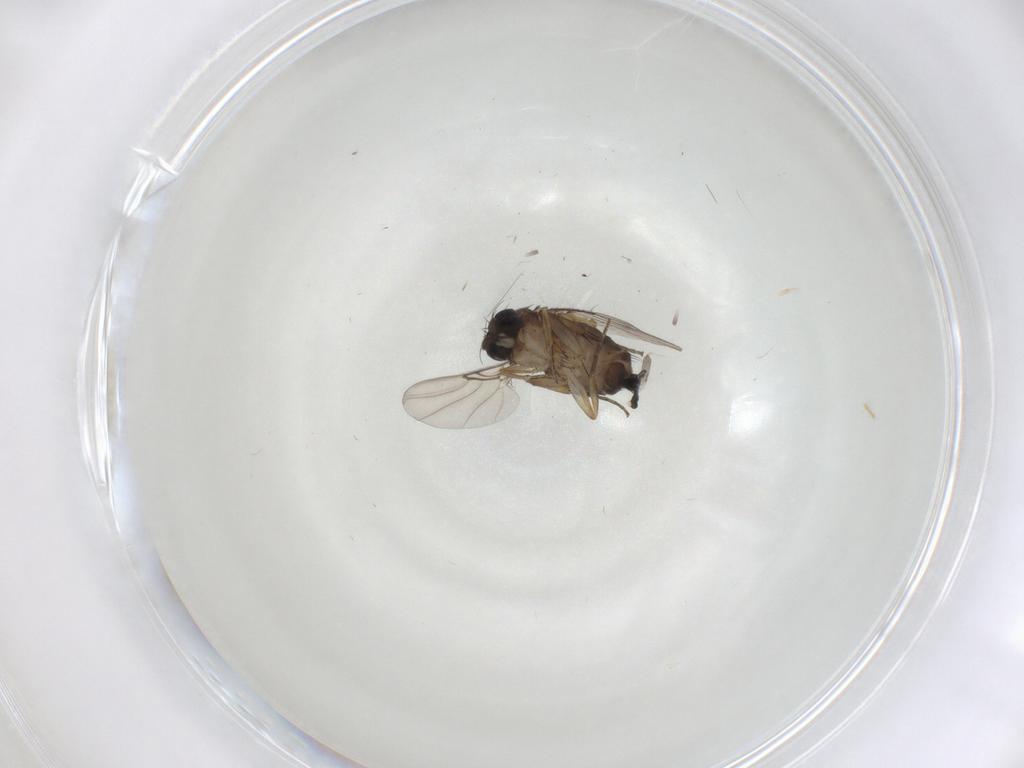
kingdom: Animalia
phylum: Arthropoda
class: Insecta
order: Diptera
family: Phoridae
